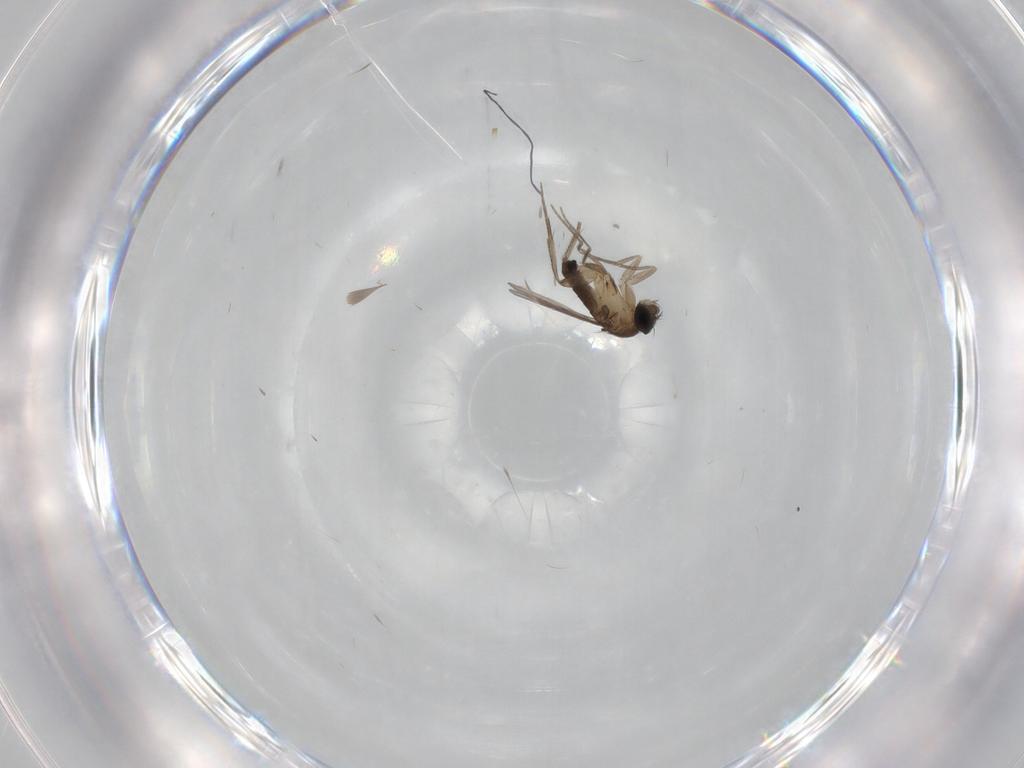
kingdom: Animalia
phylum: Arthropoda
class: Insecta
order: Diptera
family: Phoridae
